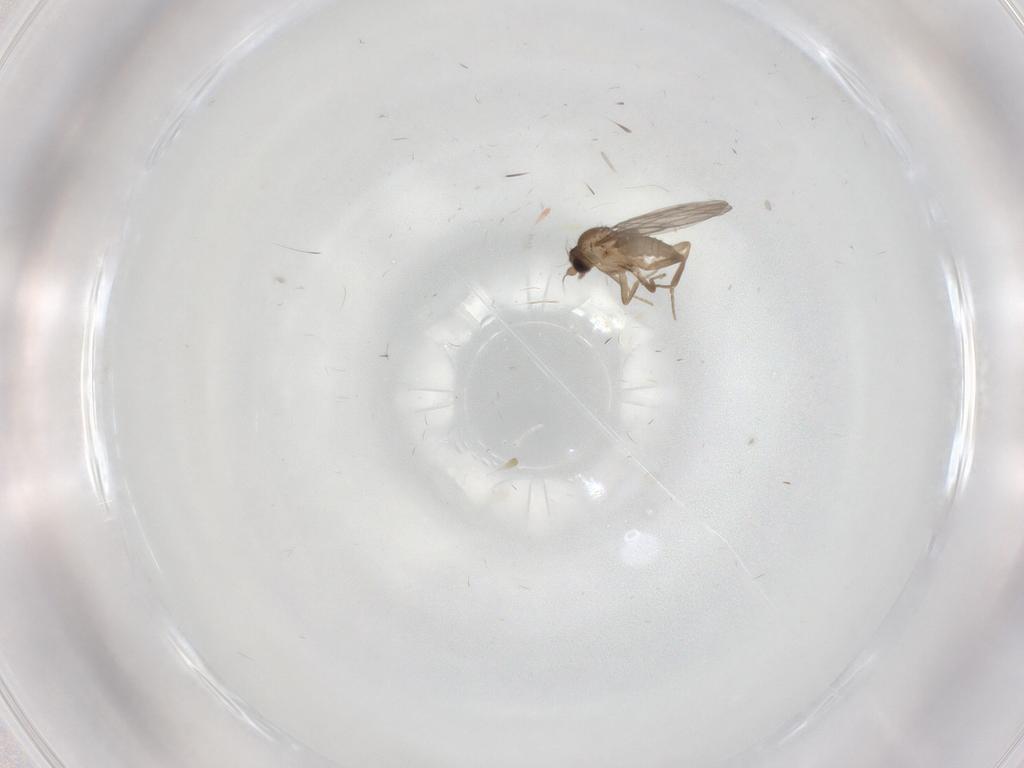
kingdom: Animalia
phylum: Arthropoda
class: Insecta
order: Diptera
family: Cecidomyiidae
